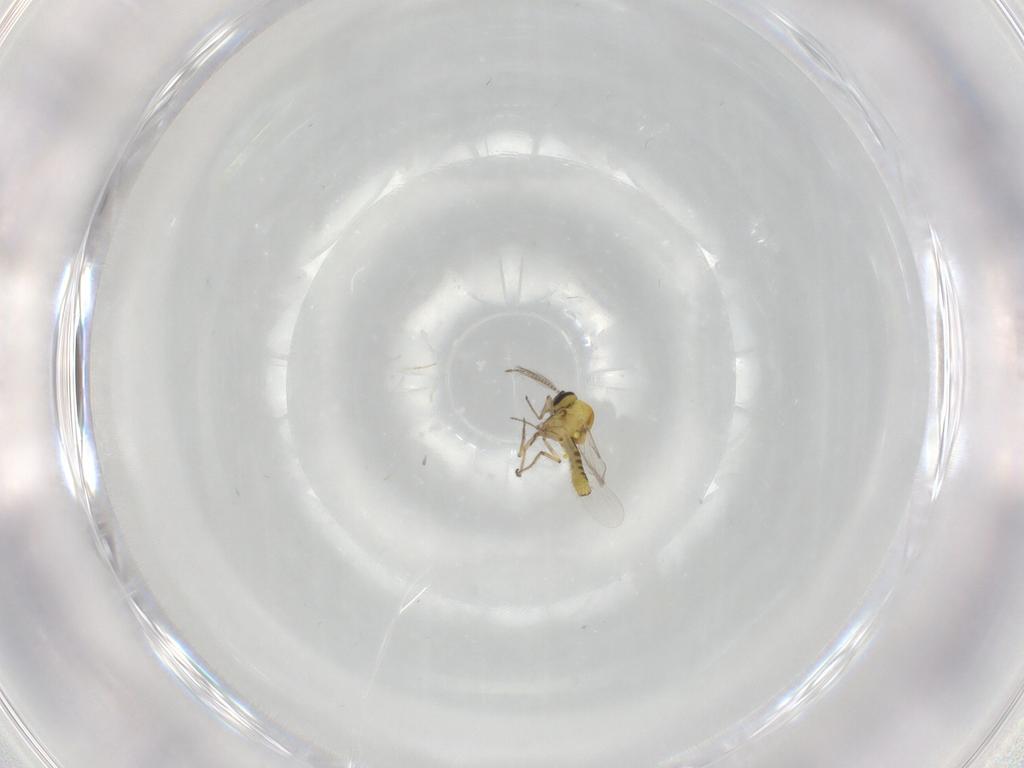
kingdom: Animalia
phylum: Arthropoda
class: Insecta
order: Diptera
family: Ceratopogonidae
